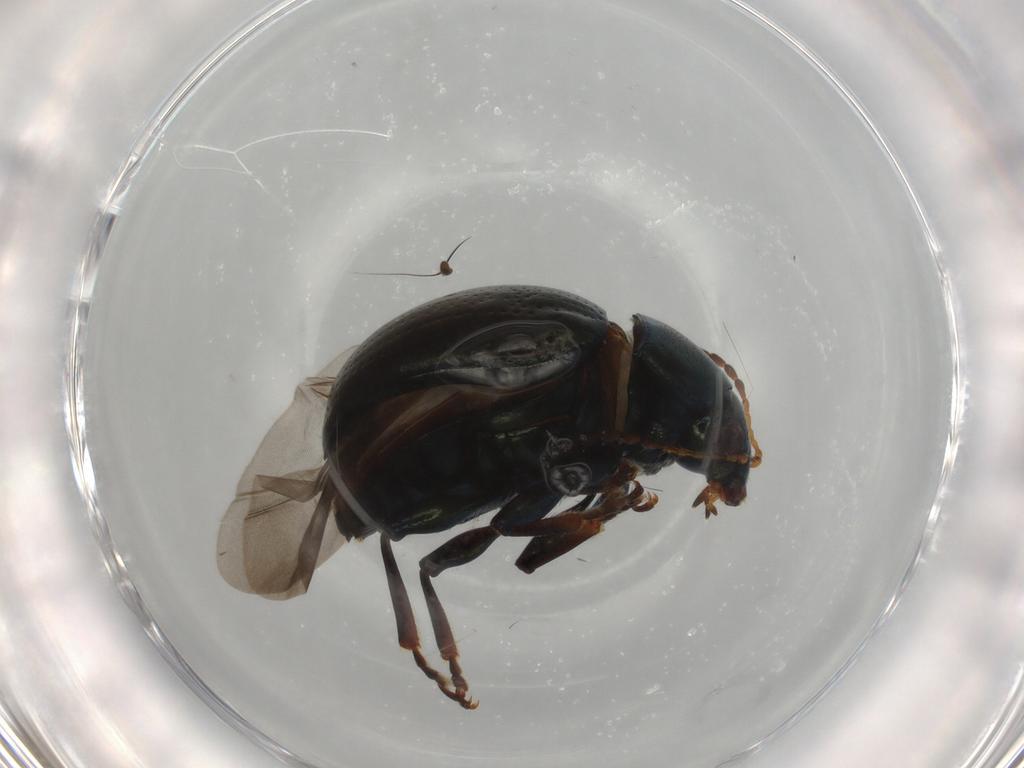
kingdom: Animalia
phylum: Arthropoda
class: Insecta
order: Coleoptera
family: Chrysomelidae
